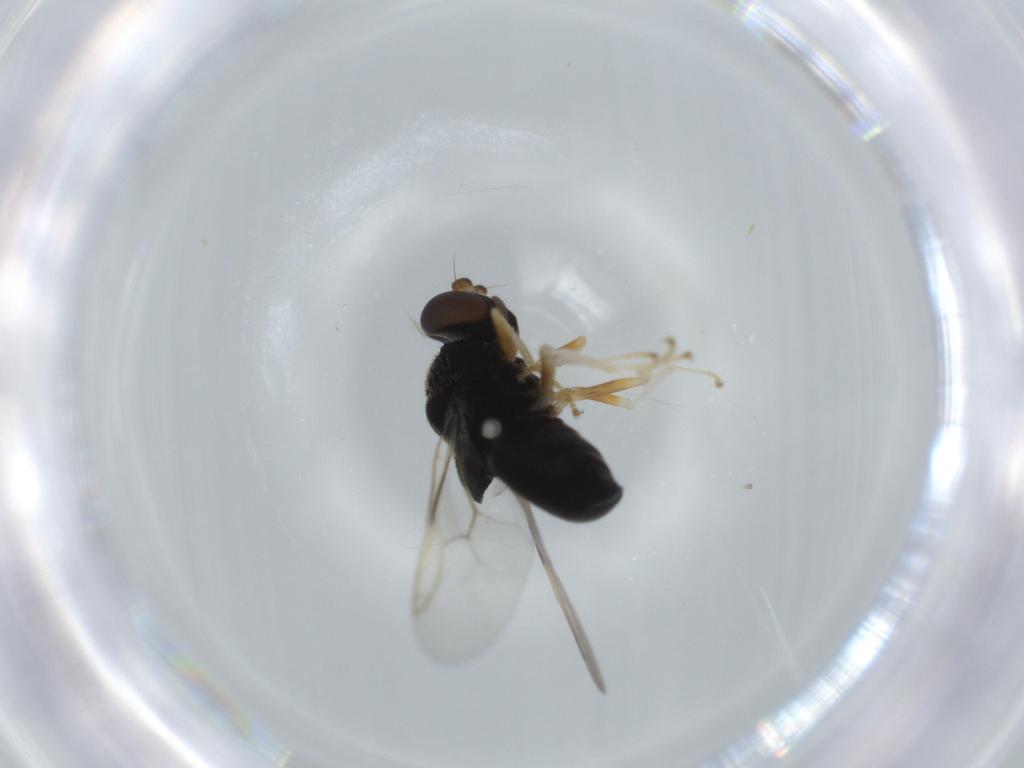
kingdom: Animalia
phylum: Arthropoda
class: Insecta
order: Diptera
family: Stratiomyidae
